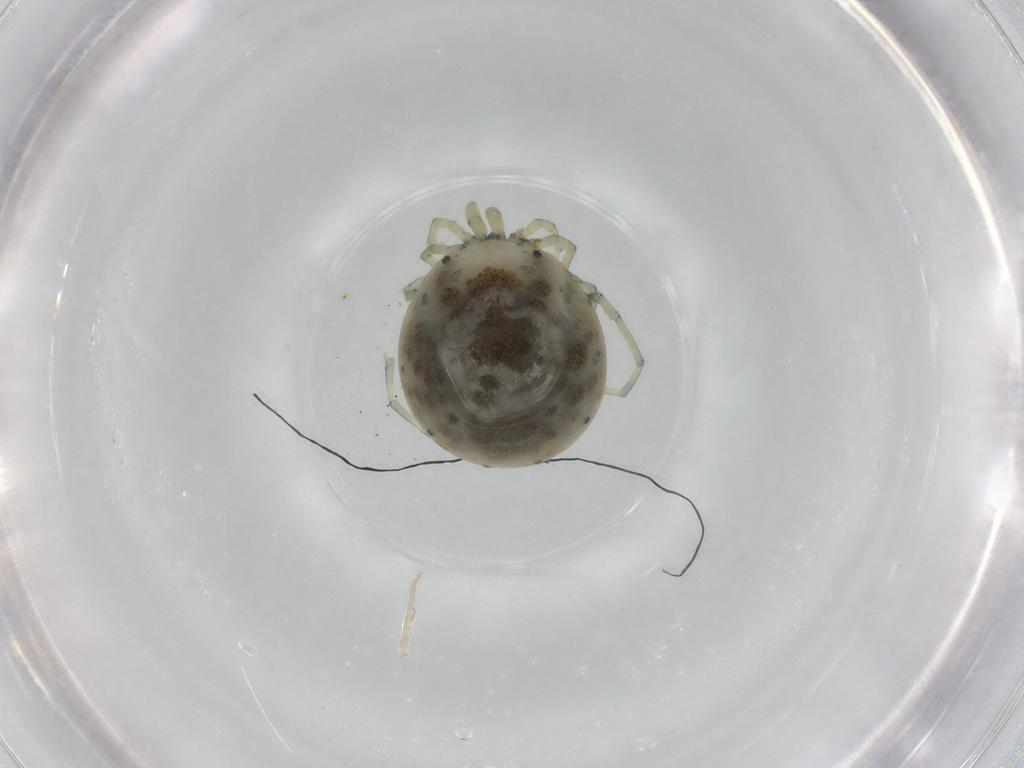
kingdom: Animalia
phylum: Arthropoda
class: Arachnida
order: Trombidiformes
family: Pionidae
